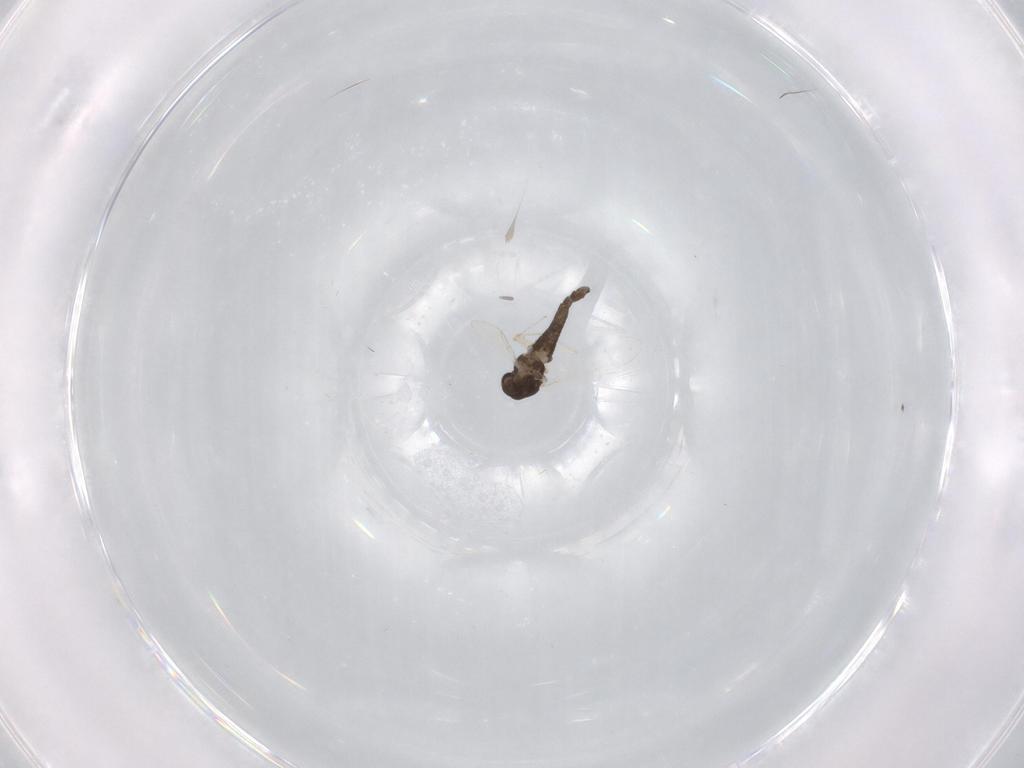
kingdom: Animalia
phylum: Arthropoda
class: Insecta
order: Diptera
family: Chironomidae
